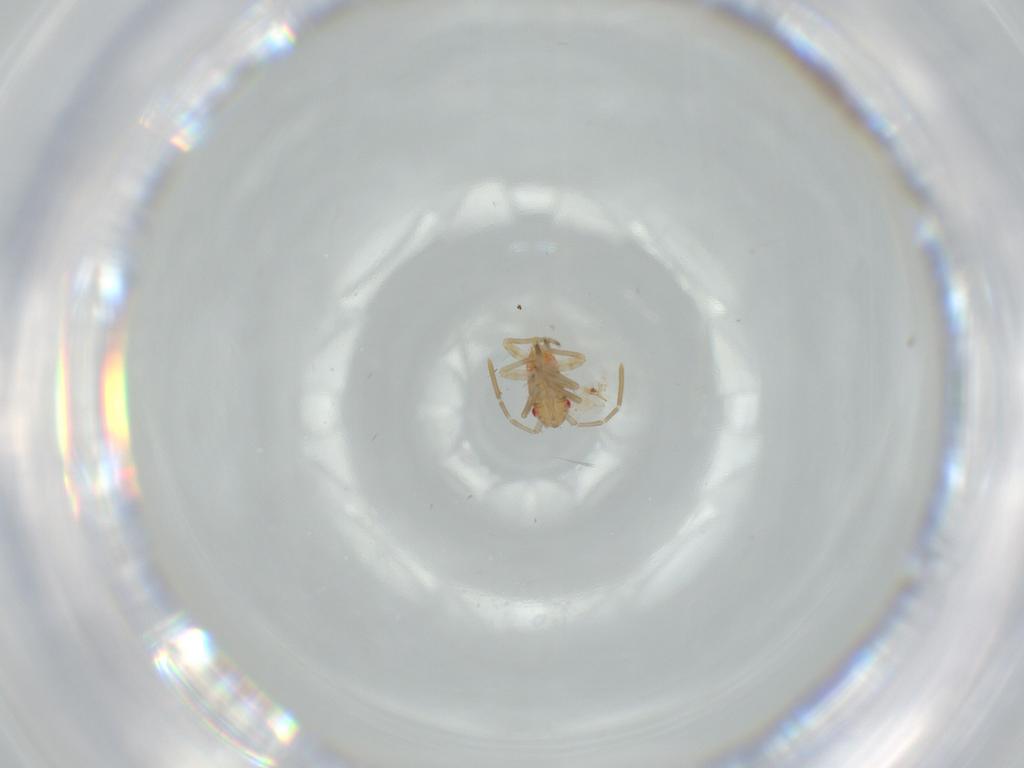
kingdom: Animalia
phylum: Arthropoda
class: Insecta
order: Hemiptera
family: Miridae
